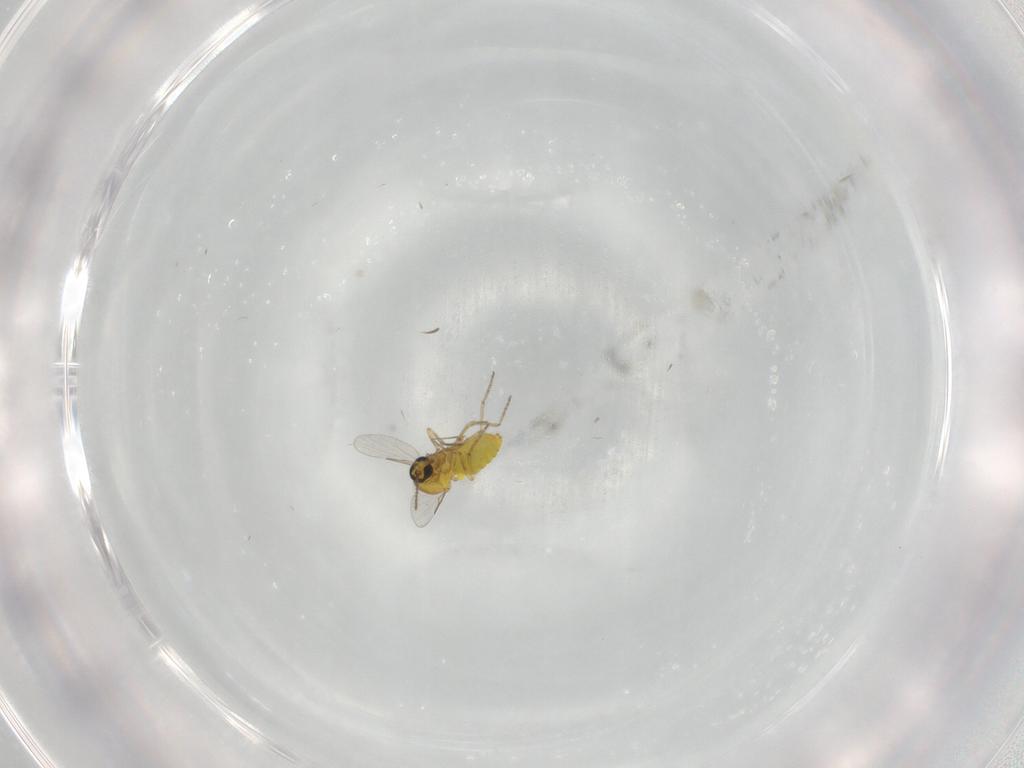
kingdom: Animalia
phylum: Arthropoda
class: Insecta
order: Diptera
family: Ceratopogonidae
